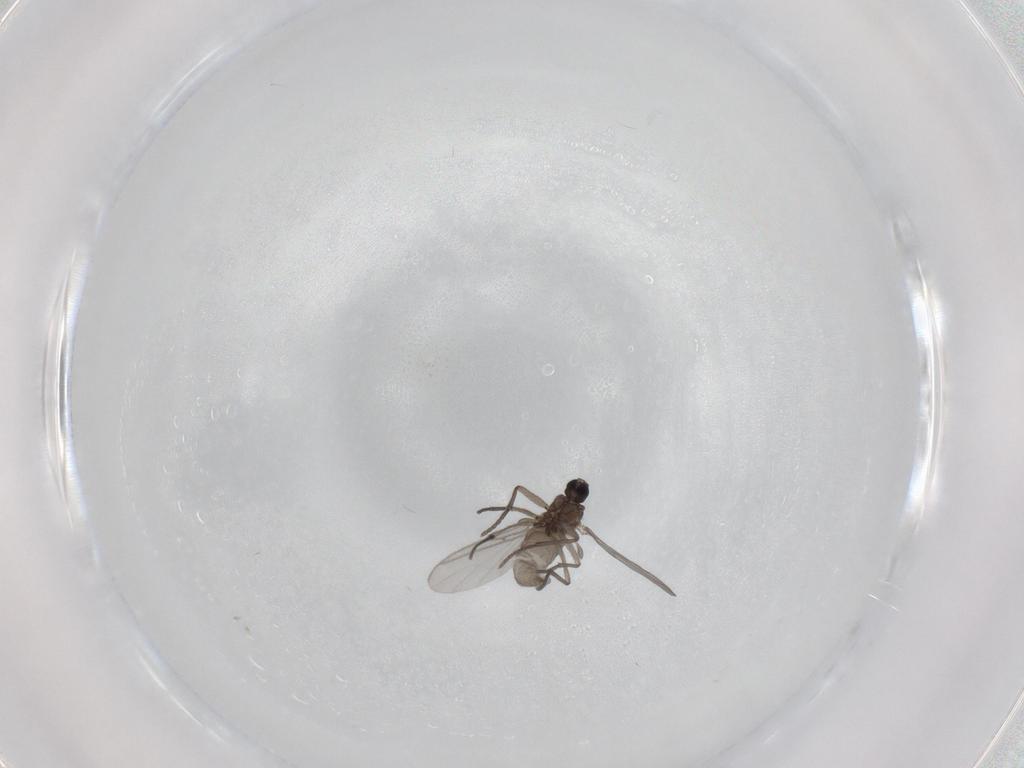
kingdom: Animalia
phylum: Arthropoda
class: Insecta
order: Diptera
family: Sciaridae
